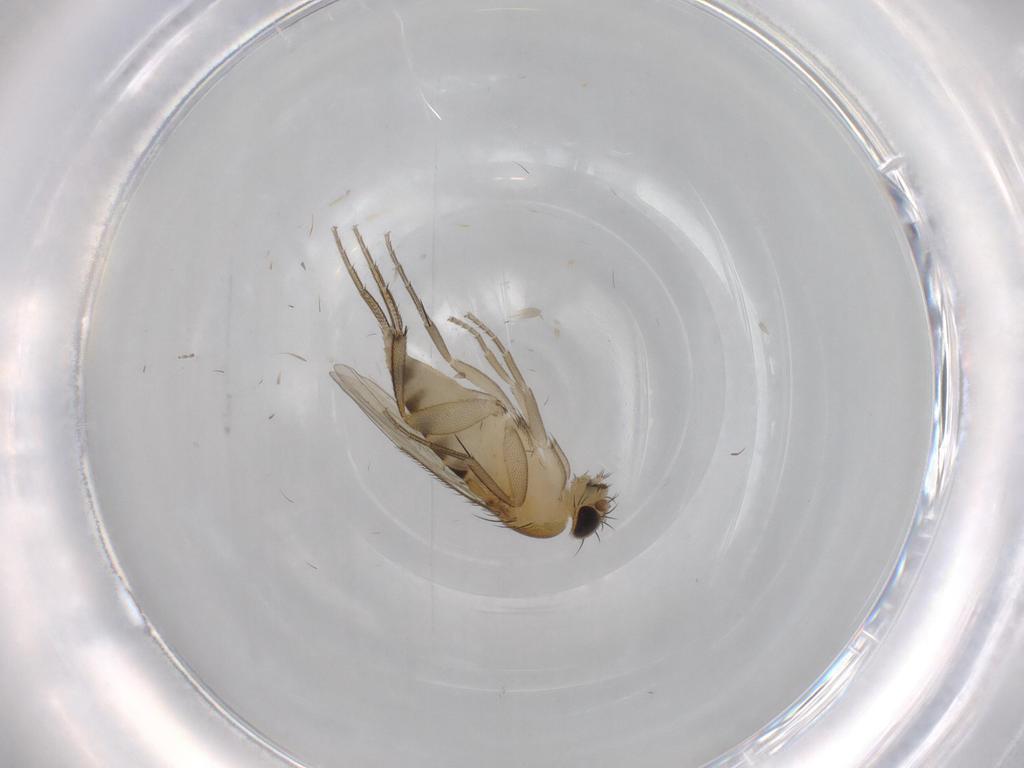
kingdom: Animalia
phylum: Arthropoda
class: Insecta
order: Diptera
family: Phoridae
